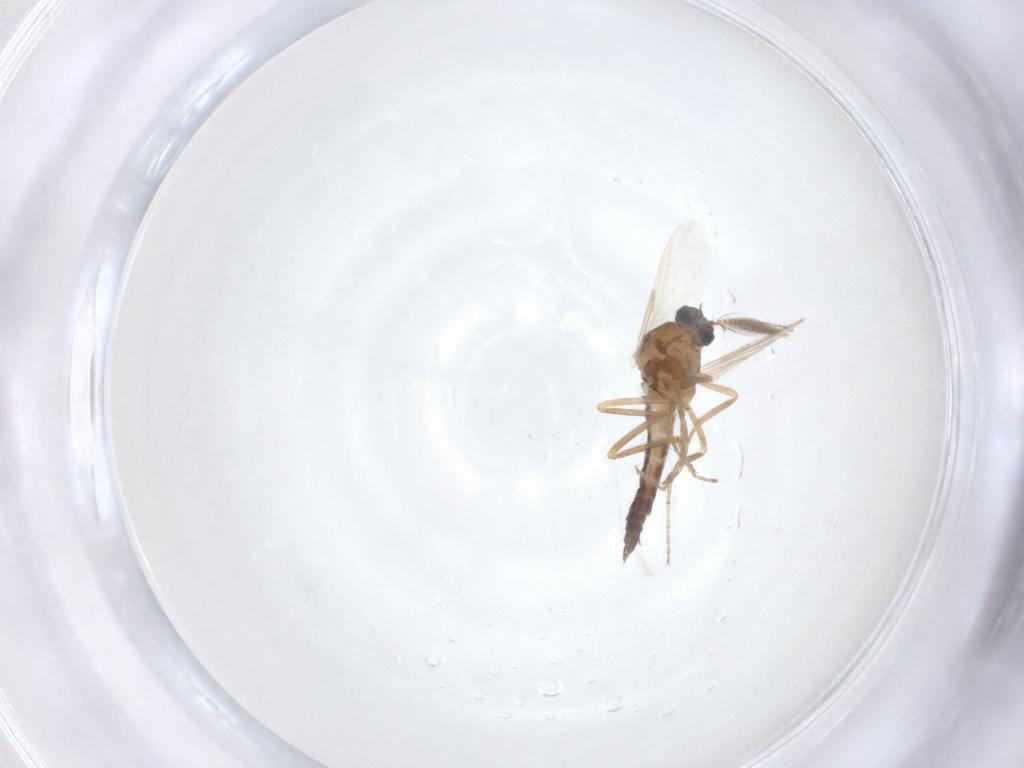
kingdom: Animalia
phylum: Arthropoda
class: Insecta
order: Diptera
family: Ceratopogonidae
